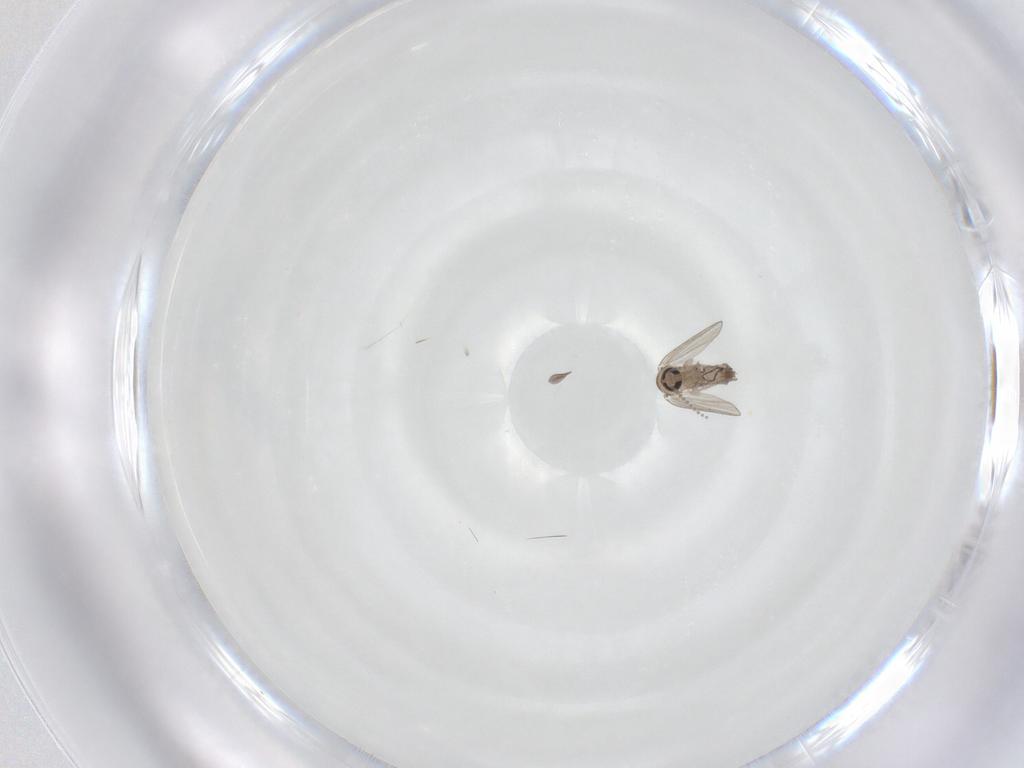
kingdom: Animalia
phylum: Arthropoda
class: Insecta
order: Diptera
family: Psychodidae
